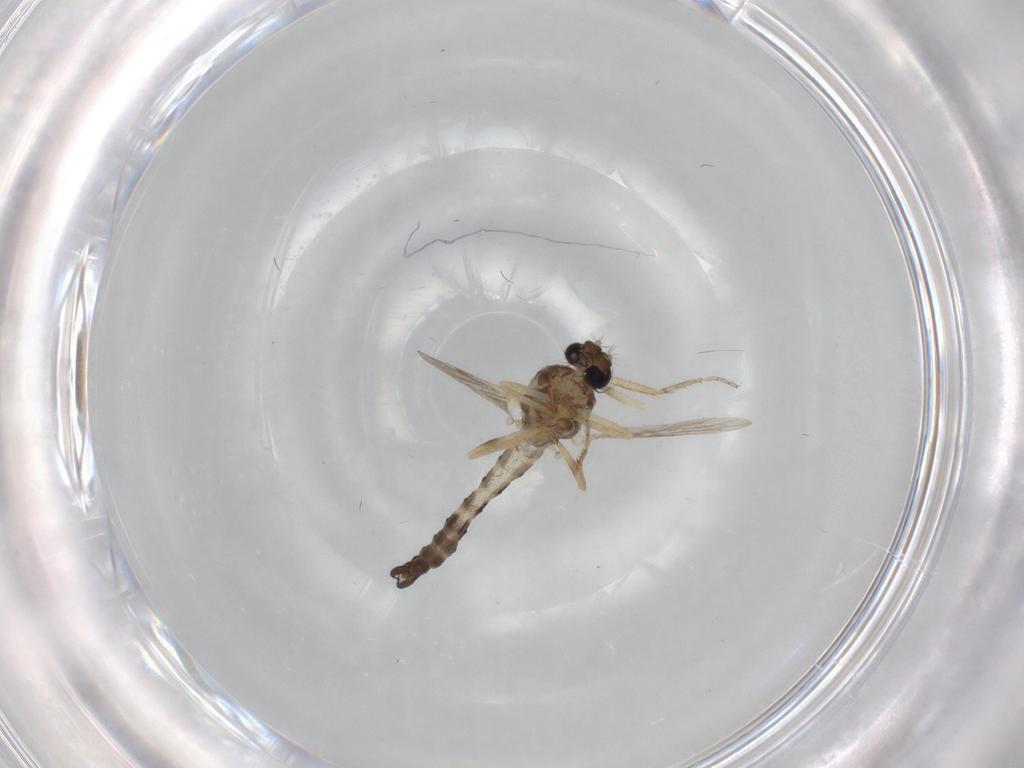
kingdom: Animalia
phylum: Arthropoda
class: Insecta
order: Diptera
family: Ceratopogonidae
